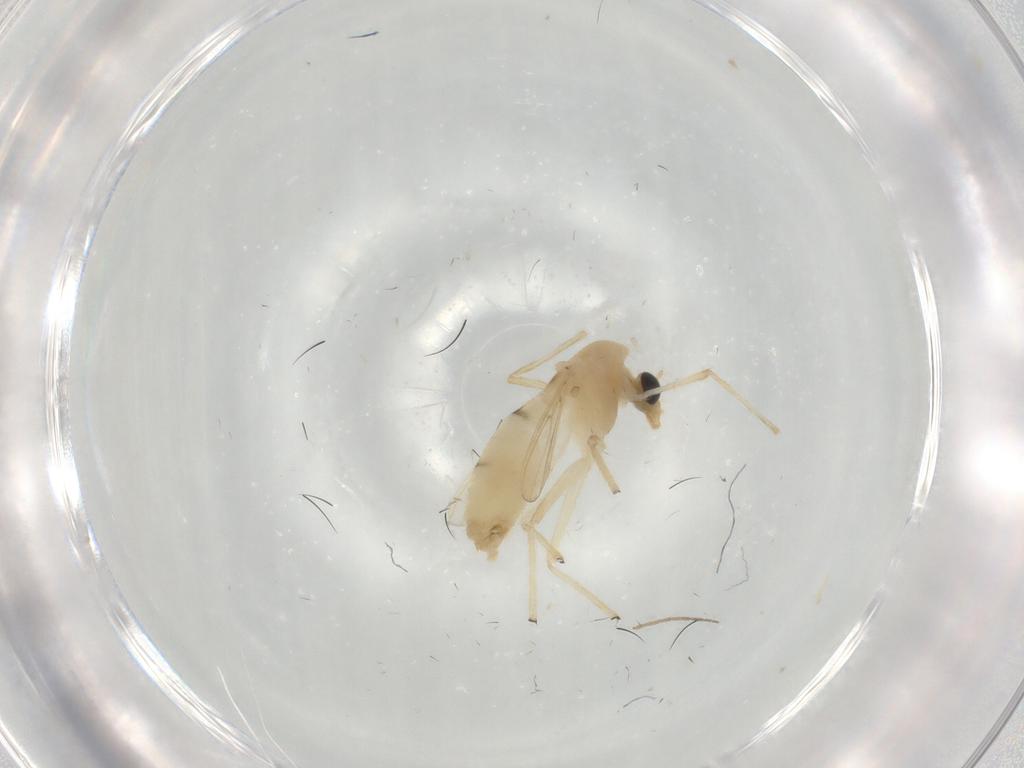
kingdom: Animalia
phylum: Arthropoda
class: Insecta
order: Diptera
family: Chironomidae
